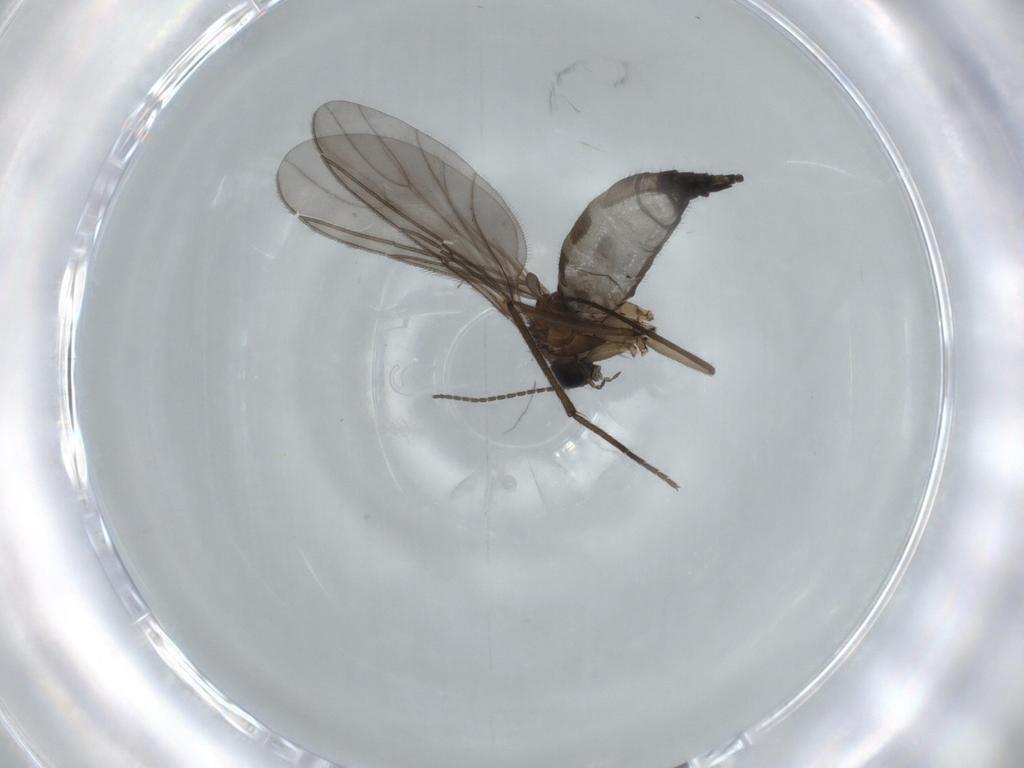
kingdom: Animalia
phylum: Arthropoda
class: Insecta
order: Diptera
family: Sciaridae
